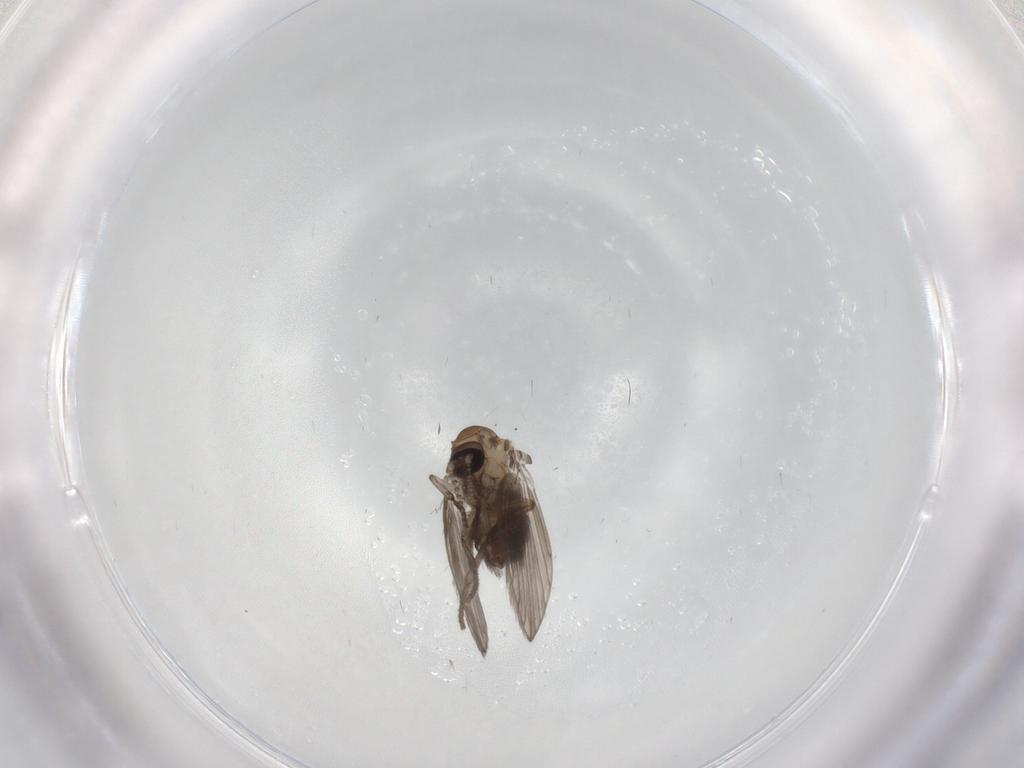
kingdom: Animalia
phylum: Arthropoda
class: Insecta
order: Diptera
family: Psychodidae
